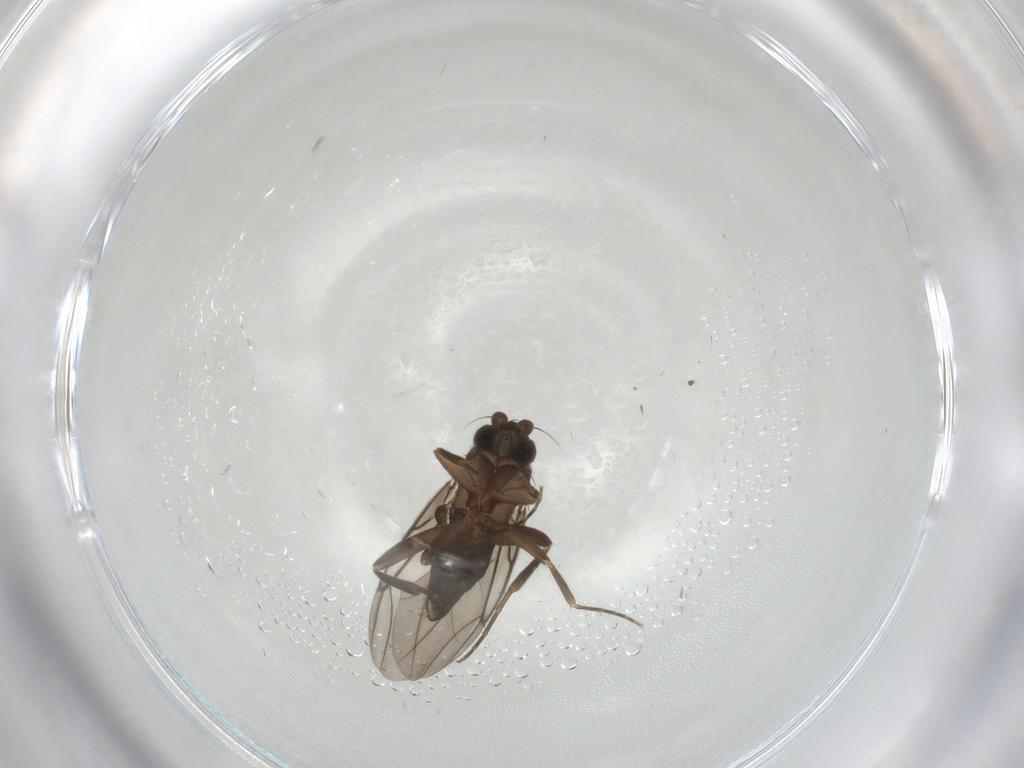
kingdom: Animalia
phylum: Arthropoda
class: Insecta
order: Diptera
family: Phoridae
